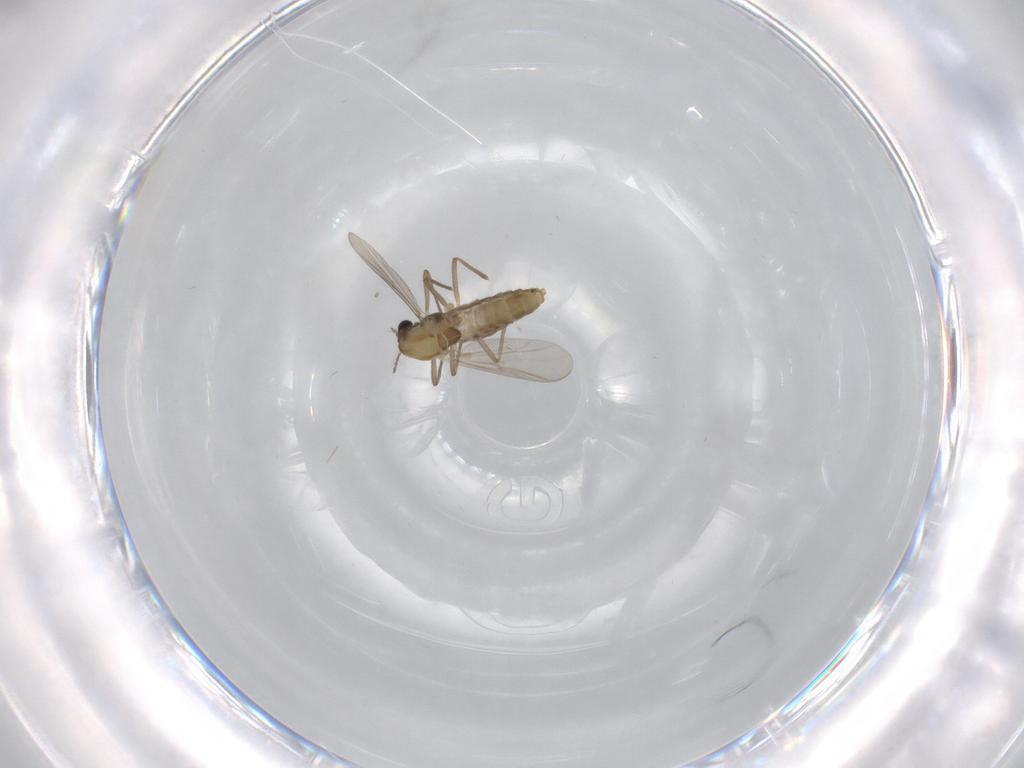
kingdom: Animalia
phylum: Arthropoda
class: Insecta
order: Diptera
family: Chironomidae
